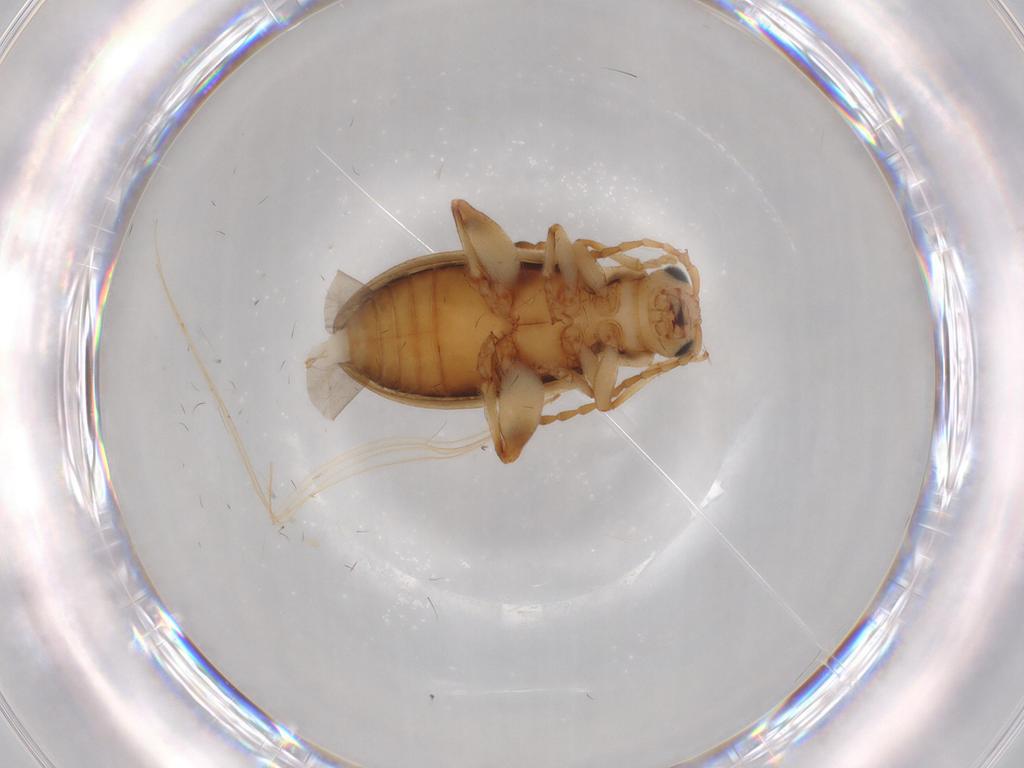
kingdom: Animalia
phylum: Arthropoda
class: Insecta
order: Coleoptera
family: Chrysomelidae
